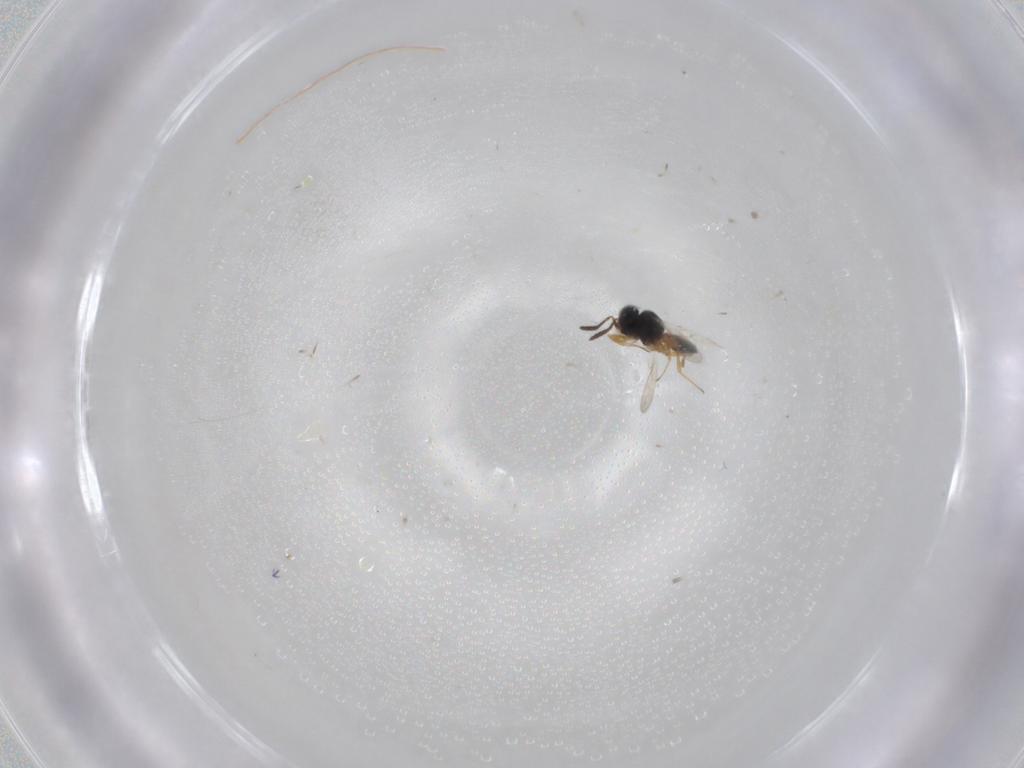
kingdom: Animalia
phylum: Arthropoda
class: Insecta
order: Hymenoptera
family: Scelionidae
